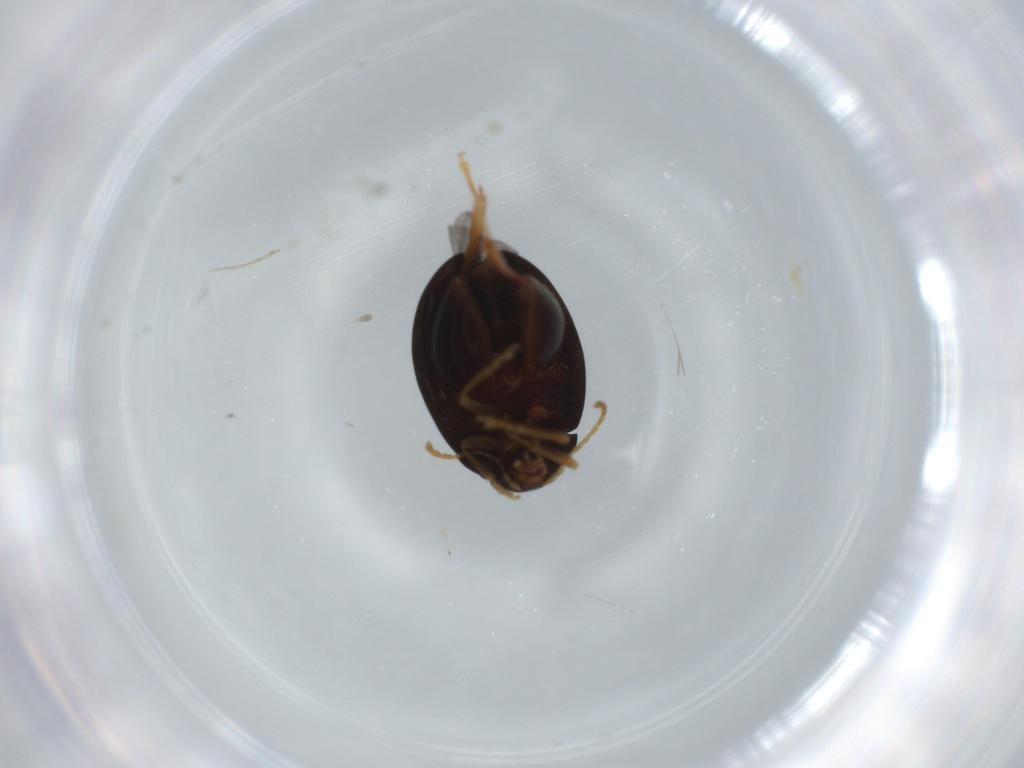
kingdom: Animalia
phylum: Arthropoda
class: Insecta
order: Coleoptera
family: Chrysomelidae
